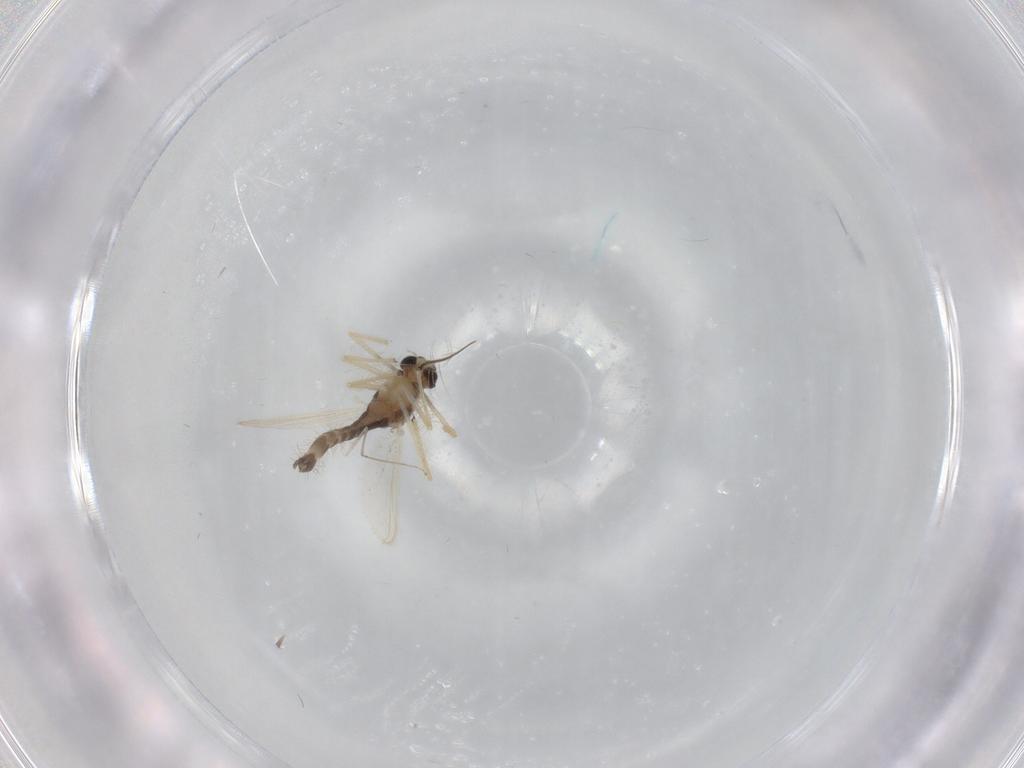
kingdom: Animalia
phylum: Arthropoda
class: Insecta
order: Diptera
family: Chironomidae
